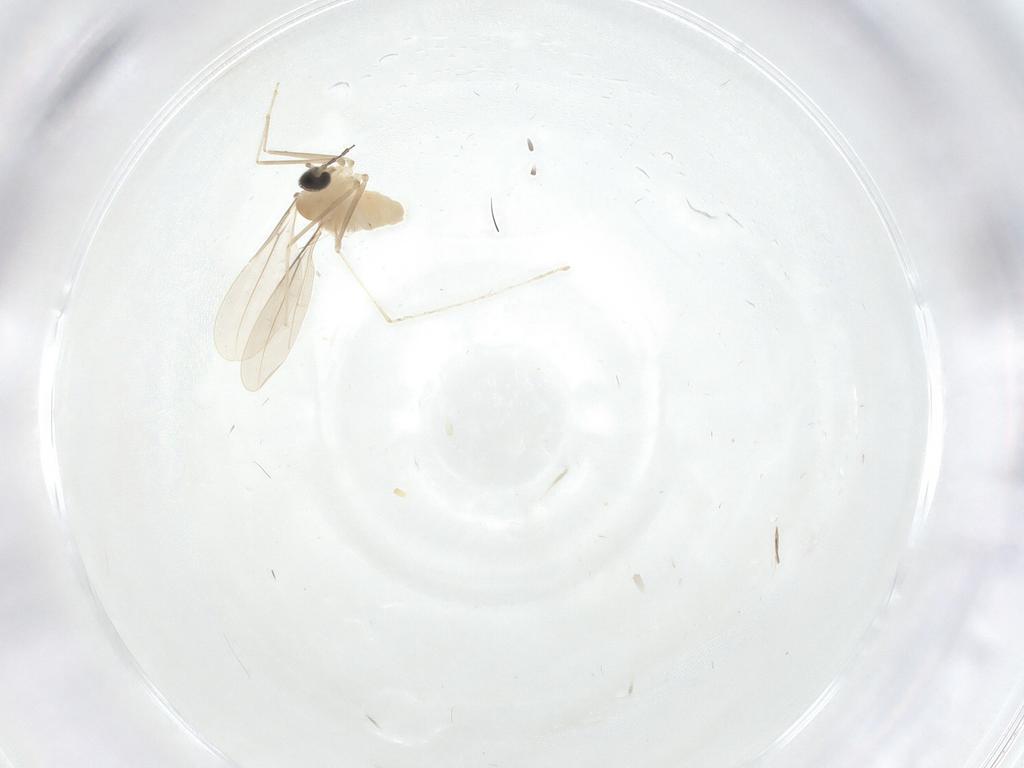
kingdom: Animalia
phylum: Arthropoda
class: Insecta
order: Diptera
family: Cecidomyiidae
